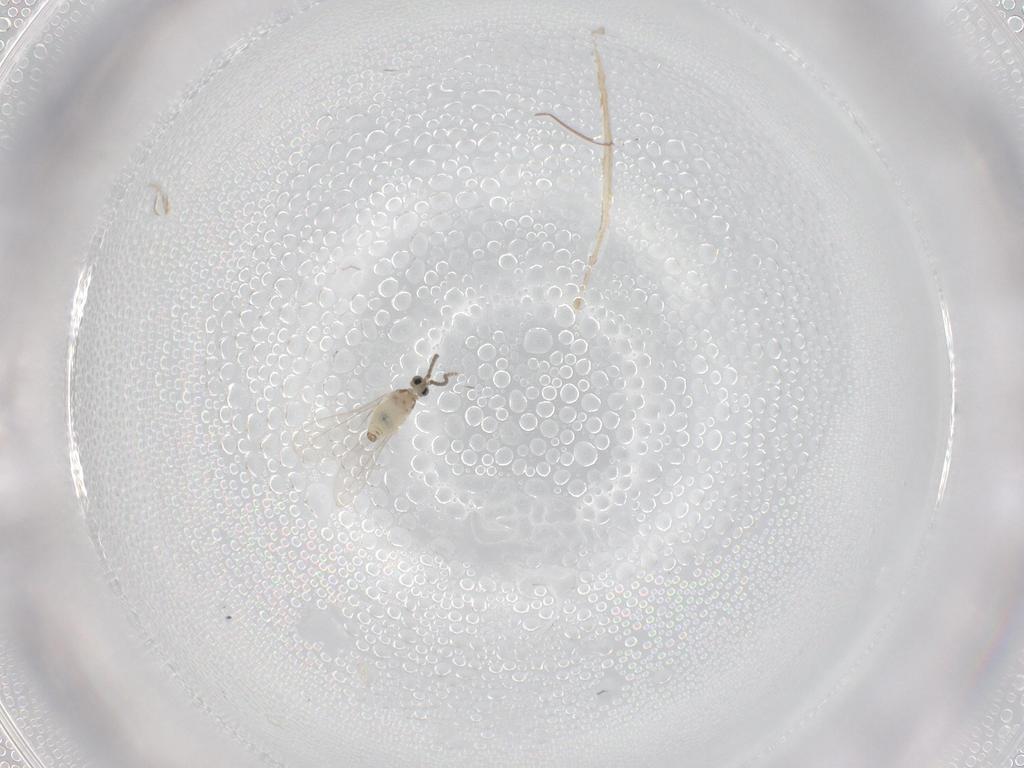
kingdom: Animalia
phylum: Arthropoda
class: Insecta
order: Diptera
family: Cecidomyiidae
